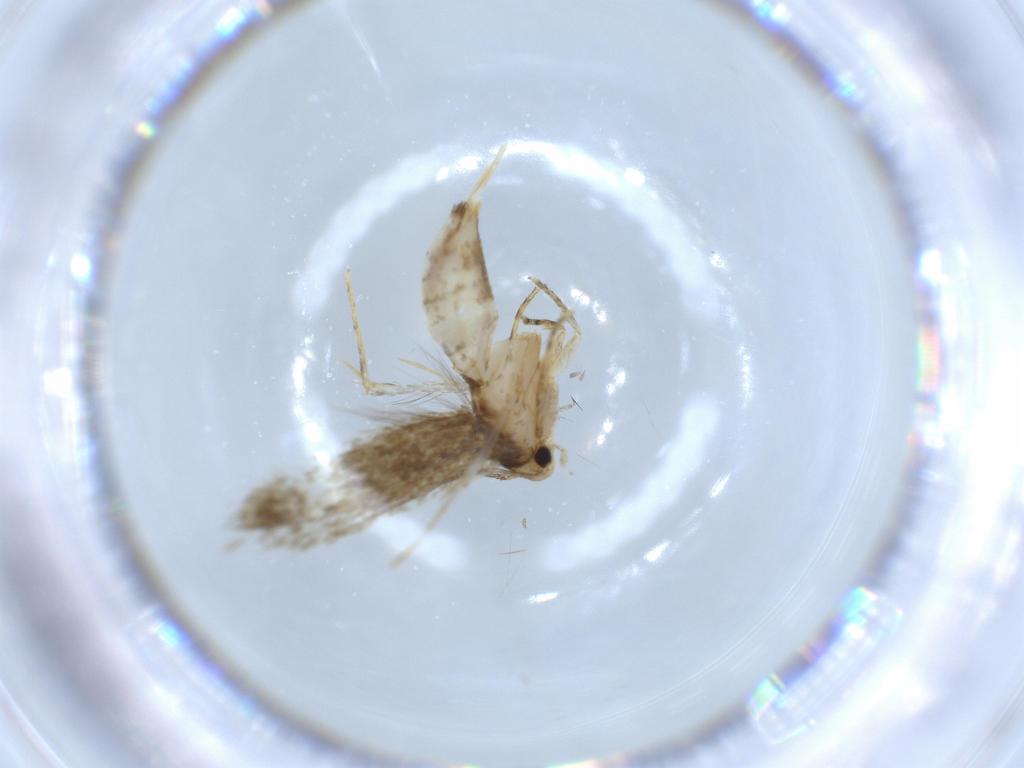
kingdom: Animalia
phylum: Arthropoda
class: Insecta
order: Lepidoptera
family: Tineidae
